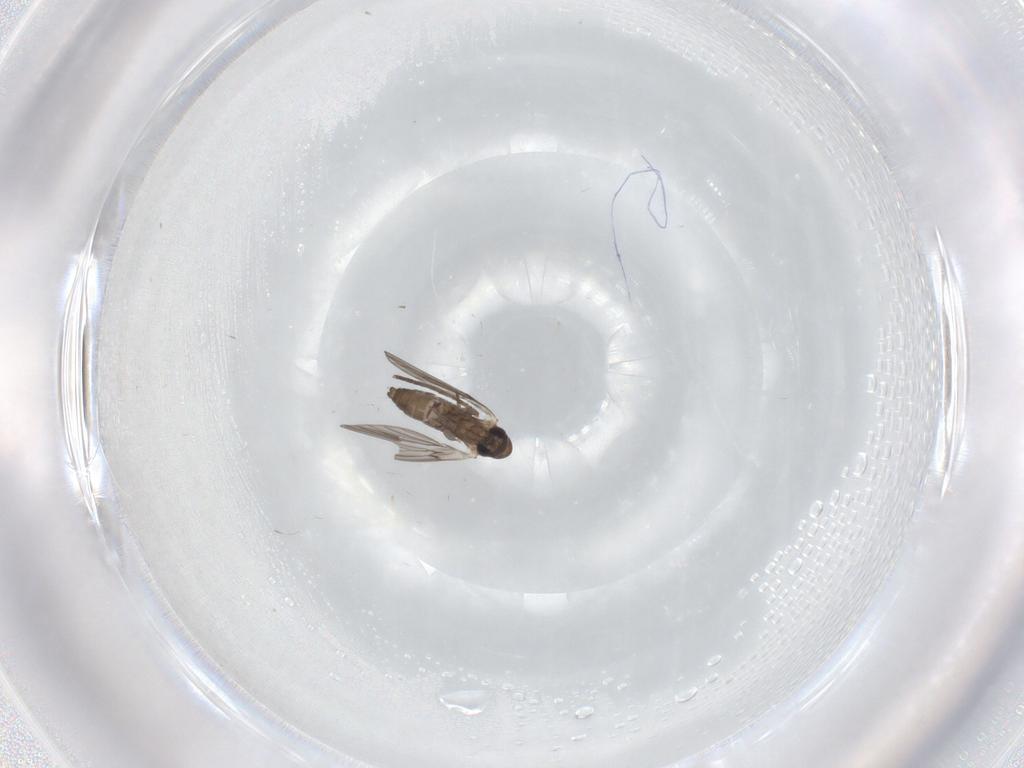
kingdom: Animalia
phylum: Arthropoda
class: Insecta
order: Diptera
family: Psychodidae
